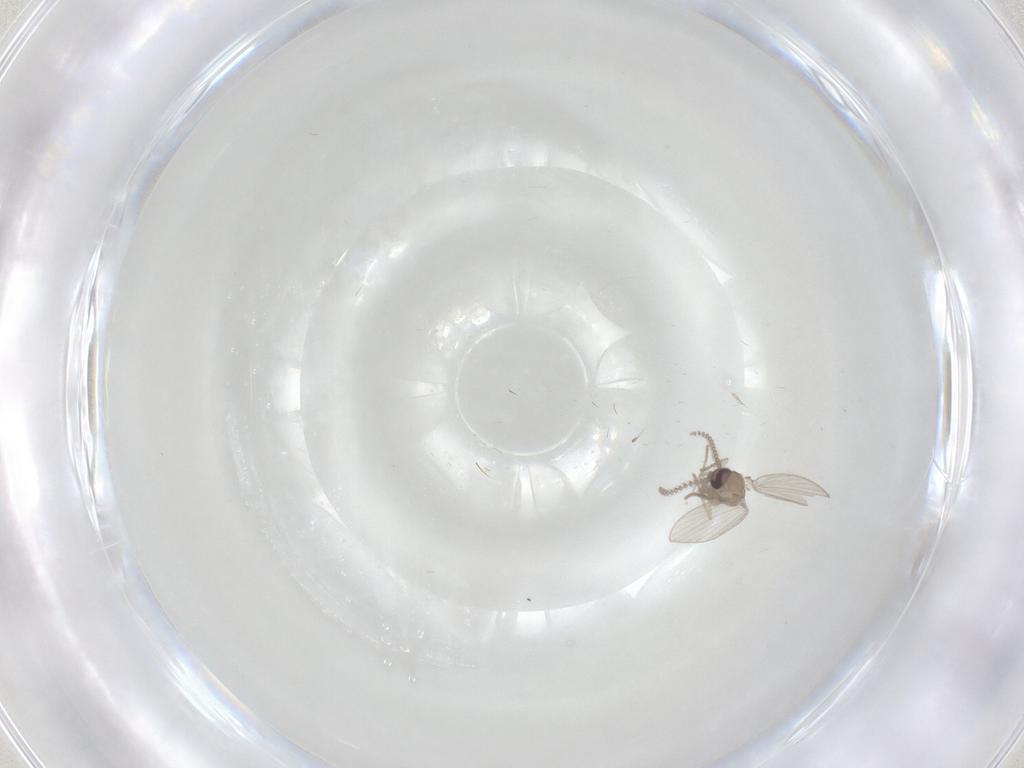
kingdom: Animalia
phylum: Arthropoda
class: Insecta
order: Diptera
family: Psychodidae
